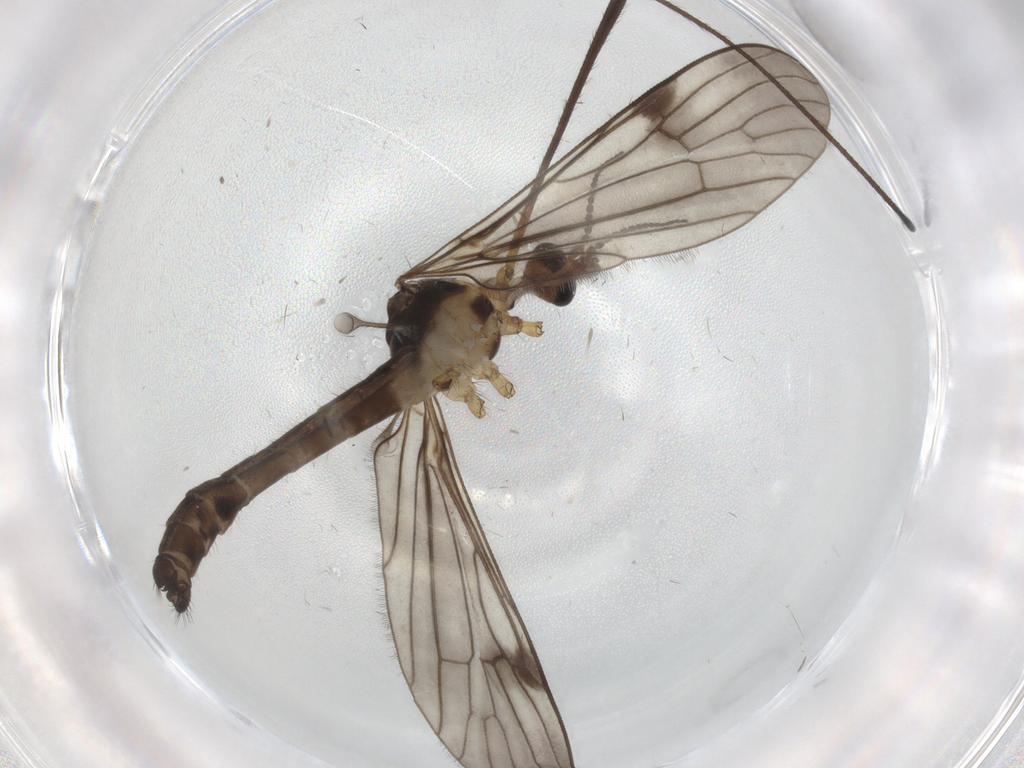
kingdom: Animalia
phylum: Arthropoda
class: Insecta
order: Diptera
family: Limoniidae
